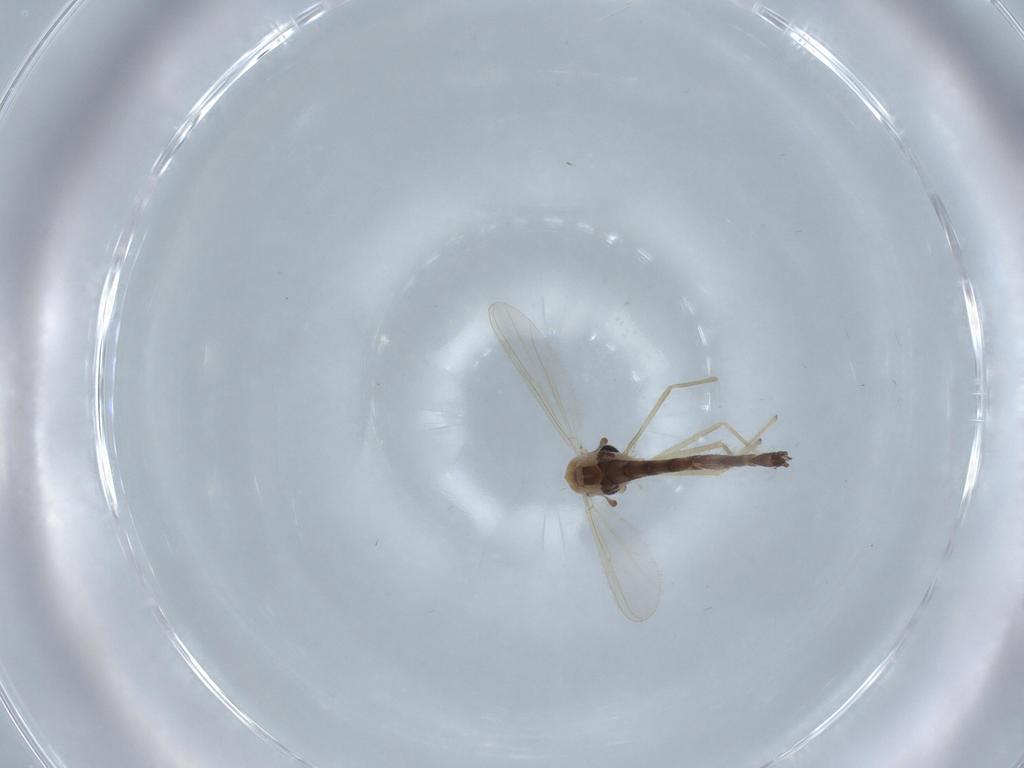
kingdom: Animalia
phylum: Arthropoda
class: Insecta
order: Diptera
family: Chironomidae
